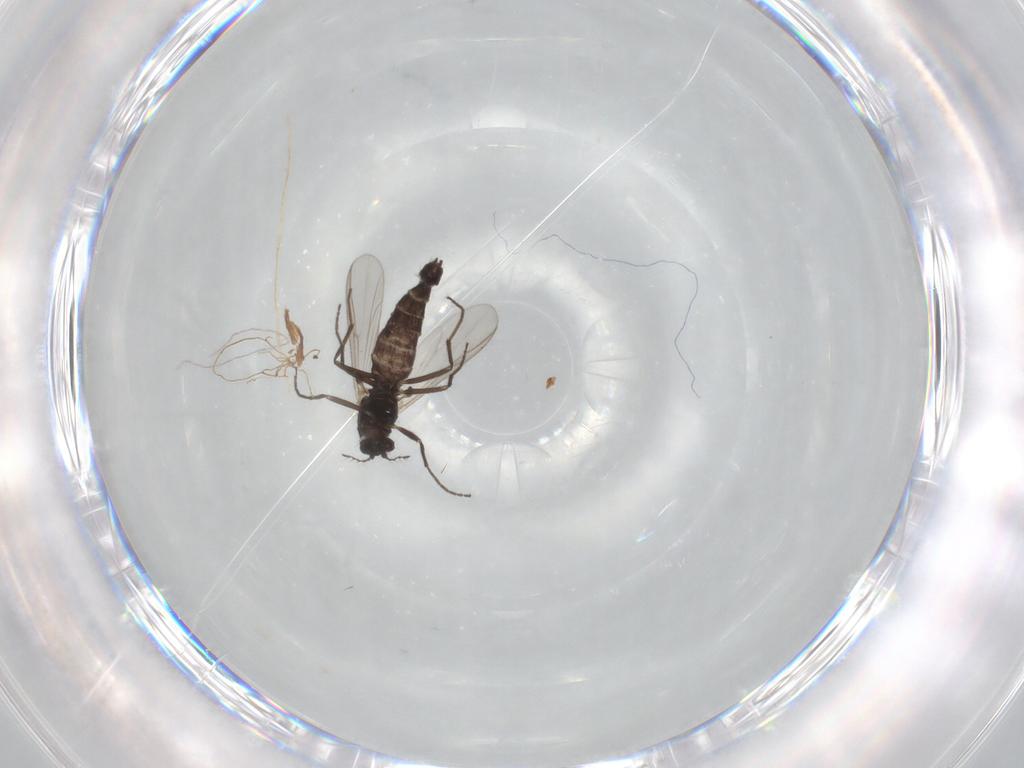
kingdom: Animalia
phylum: Arthropoda
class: Insecta
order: Diptera
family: Chironomidae
